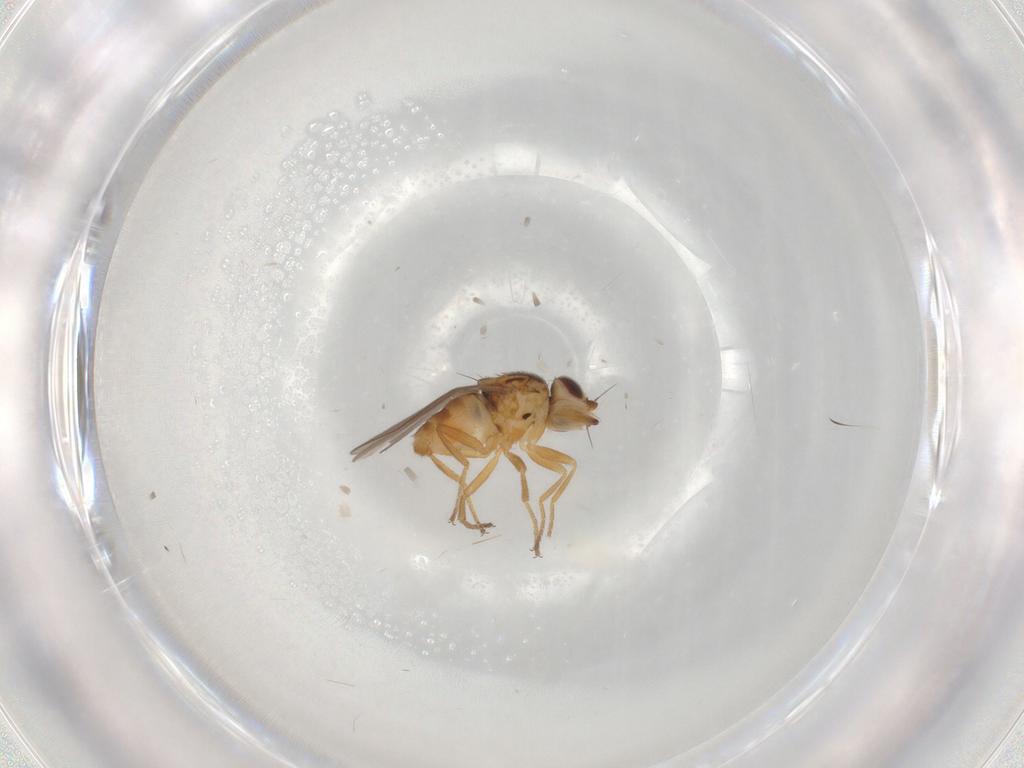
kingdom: Animalia
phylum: Arthropoda
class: Insecta
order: Diptera
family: Chloropidae
